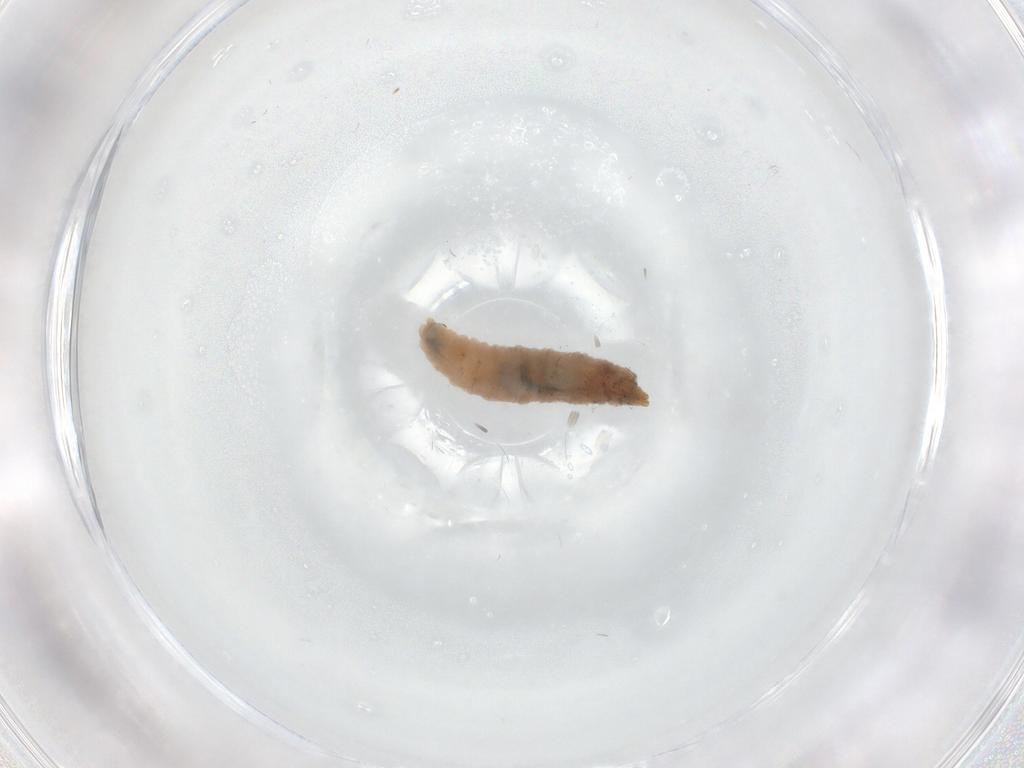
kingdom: Animalia
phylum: Arthropoda
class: Insecta
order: Diptera
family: Drosophilidae
